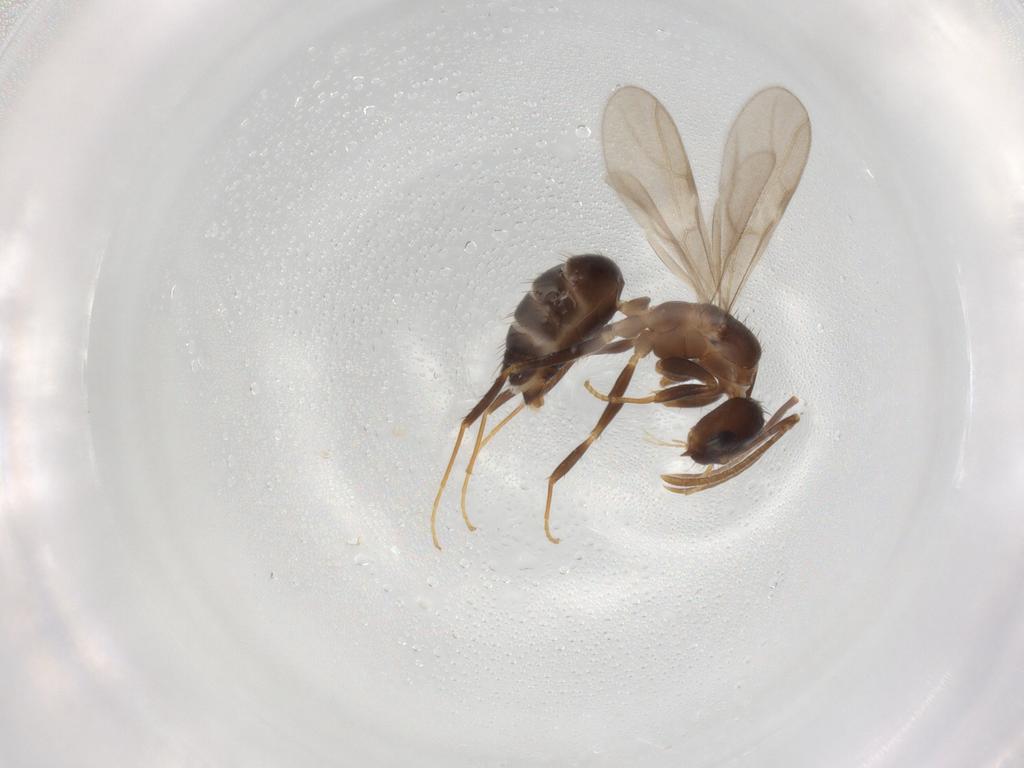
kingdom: Animalia
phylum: Arthropoda
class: Insecta
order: Hymenoptera
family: Formicidae
